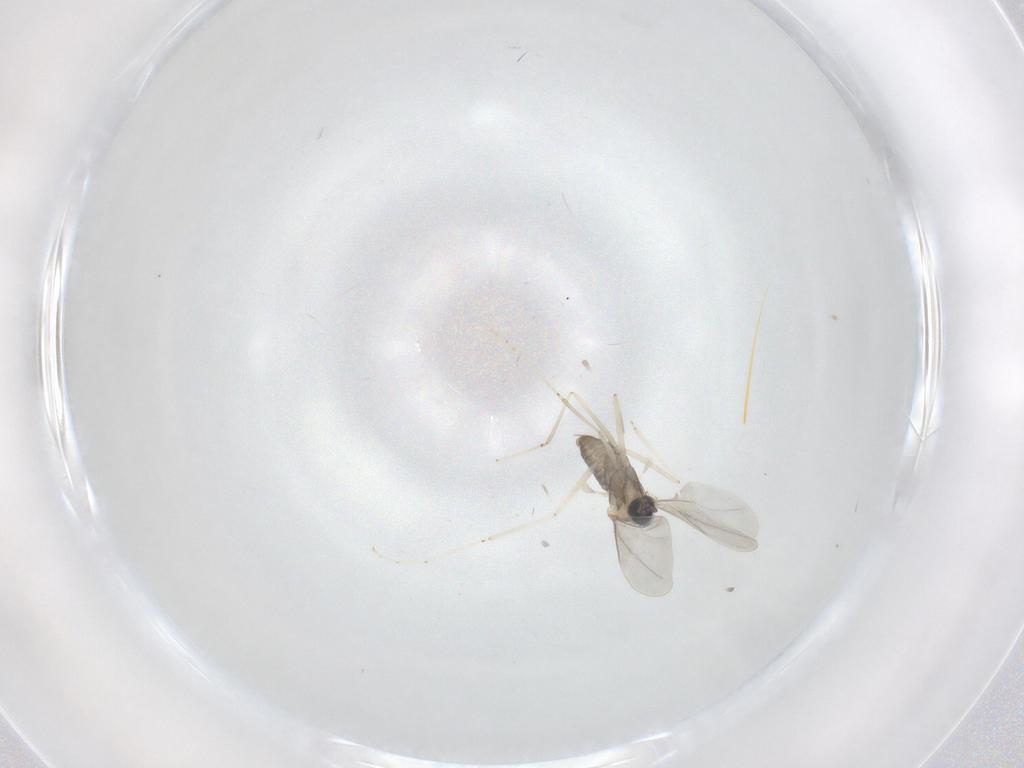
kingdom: Animalia
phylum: Arthropoda
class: Insecta
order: Diptera
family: Cecidomyiidae
